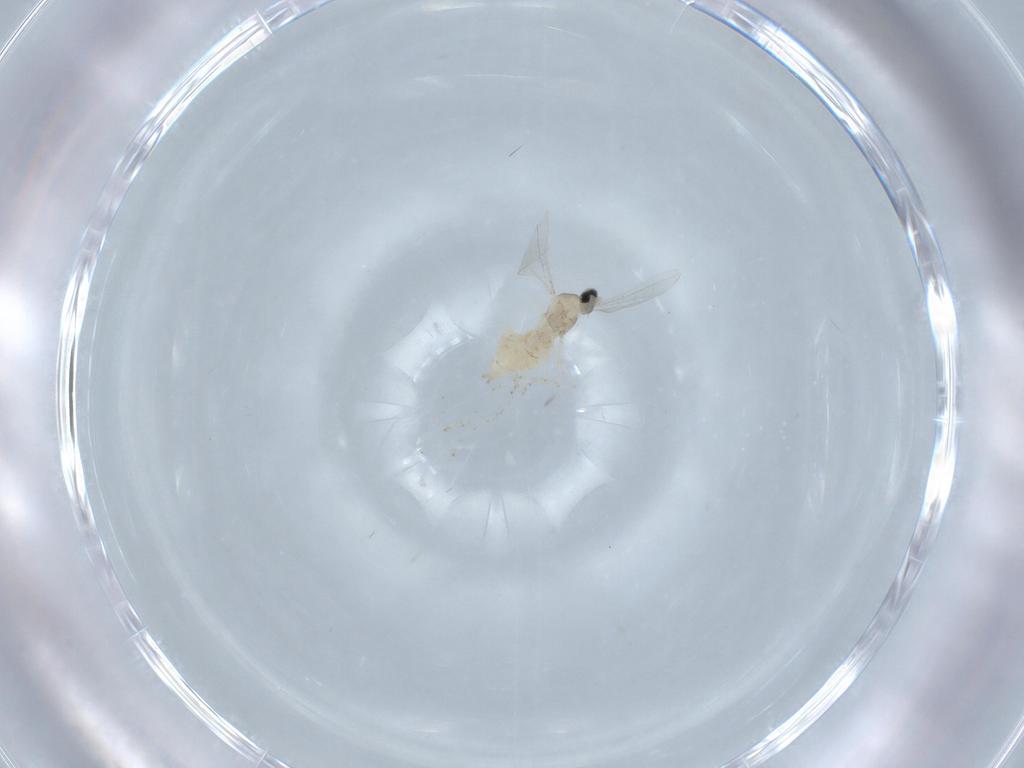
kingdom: Animalia
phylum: Arthropoda
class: Insecta
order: Diptera
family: Cecidomyiidae
